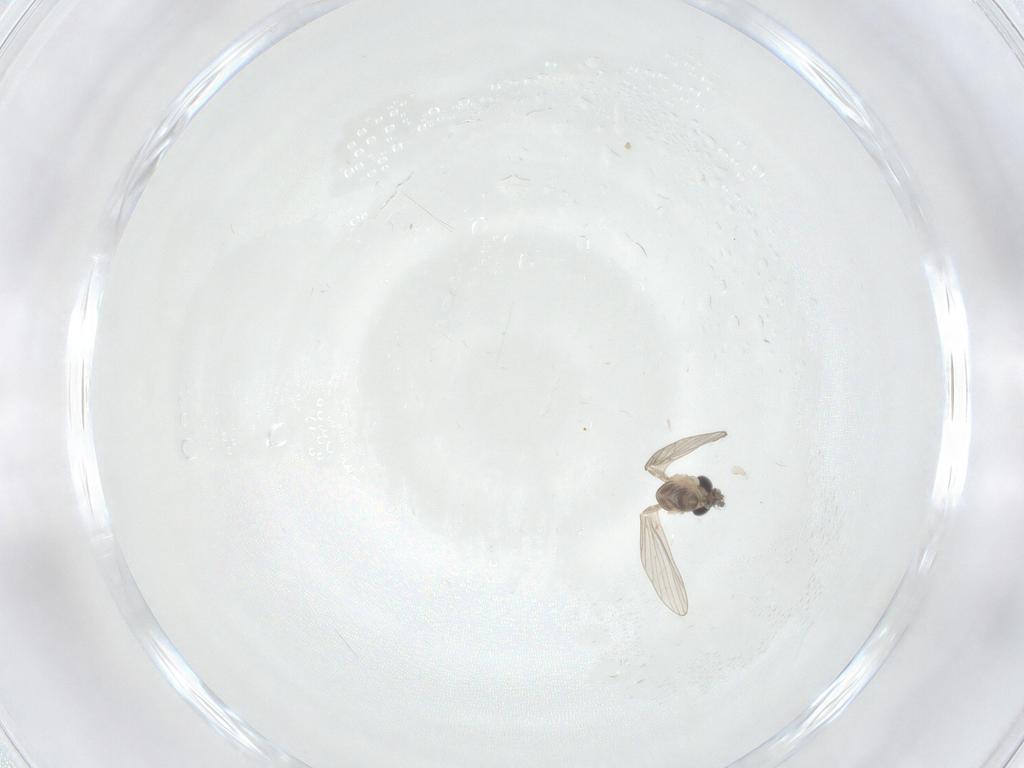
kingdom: Animalia
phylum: Arthropoda
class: Insecta
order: Diptera
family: Psychodidae
